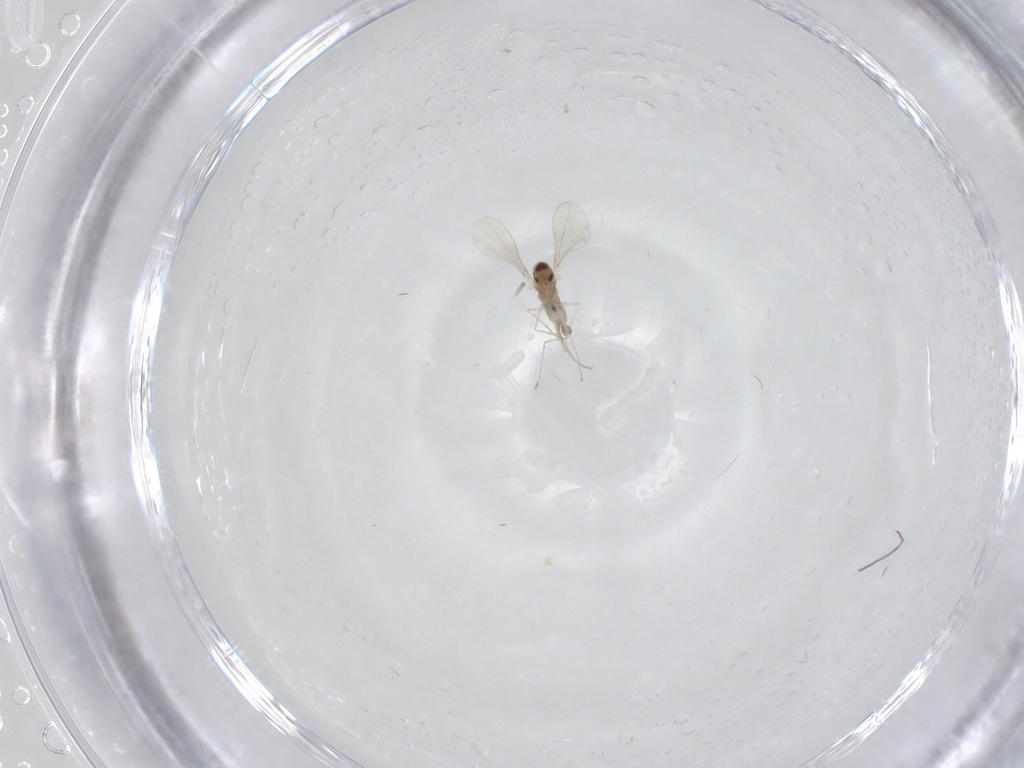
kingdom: Animalia
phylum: Arthropoda
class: Insecta
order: Diptera
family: Cecidomyiidae
